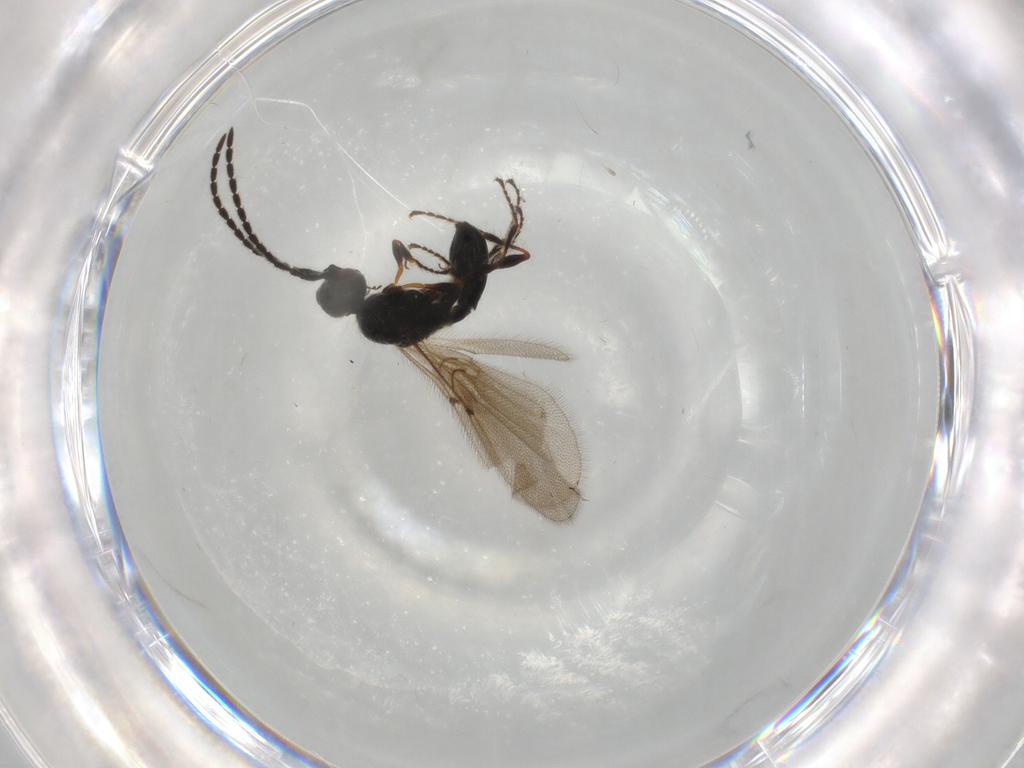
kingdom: Animalia
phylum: Arthropoda
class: Insecta
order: Hymenoptera
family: Diapriidae
